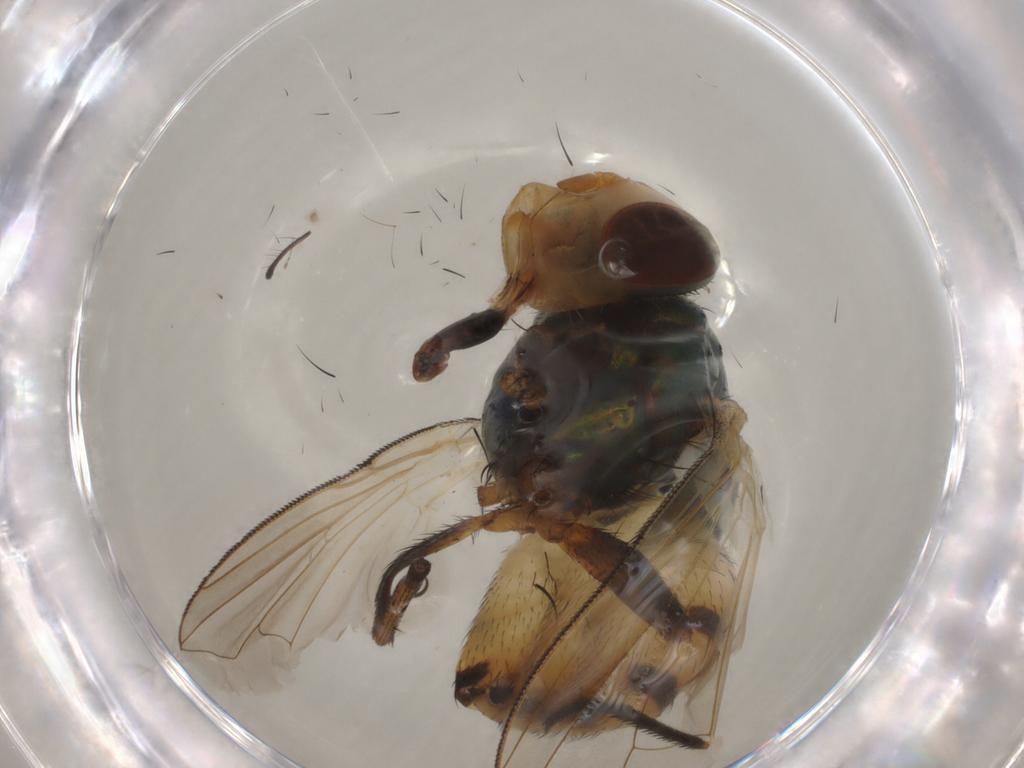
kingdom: Animalia
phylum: Arthropoda
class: Insecta
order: Diptera
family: Calliphoridae
